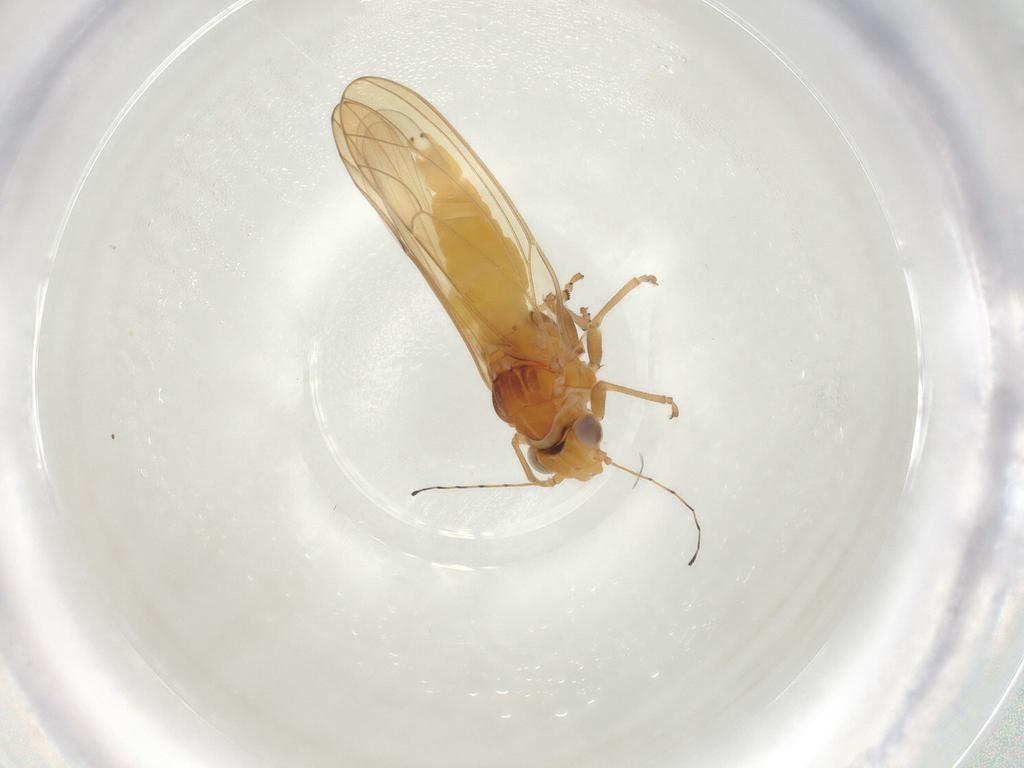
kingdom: Animalia
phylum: Arthropoda
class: Insecta
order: Hemiptera
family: Psylloidea_incertae_sedis
